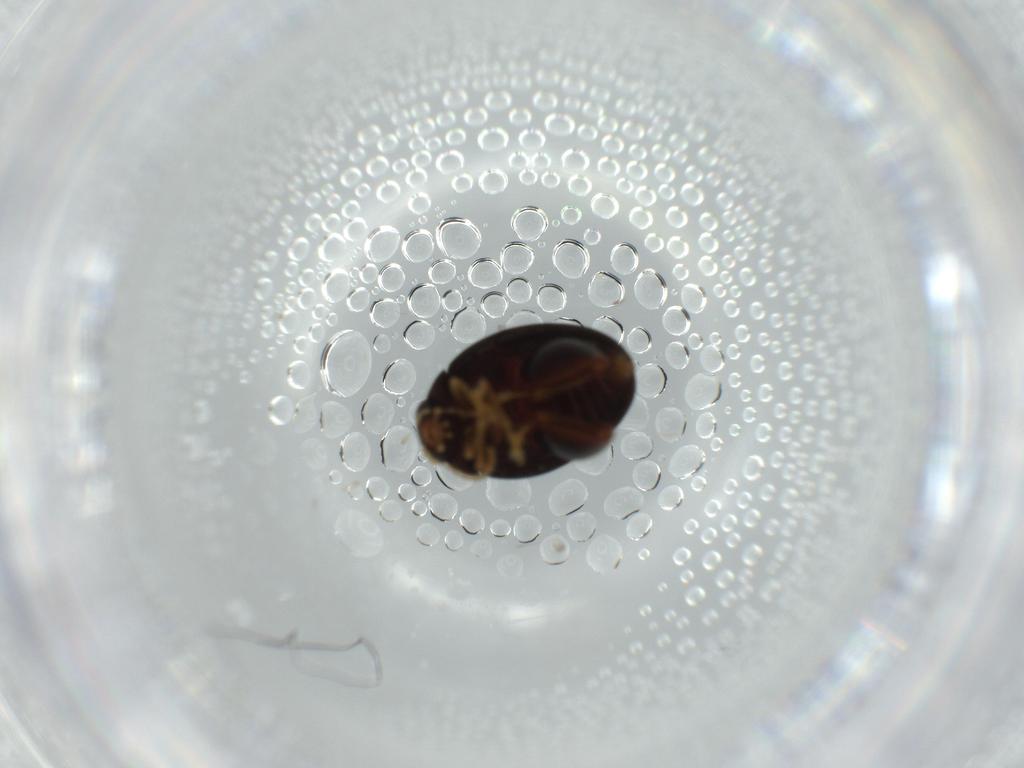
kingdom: Animalia
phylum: Arthropoda
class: Insecta
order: Coleoptera
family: Chrysomelidae
